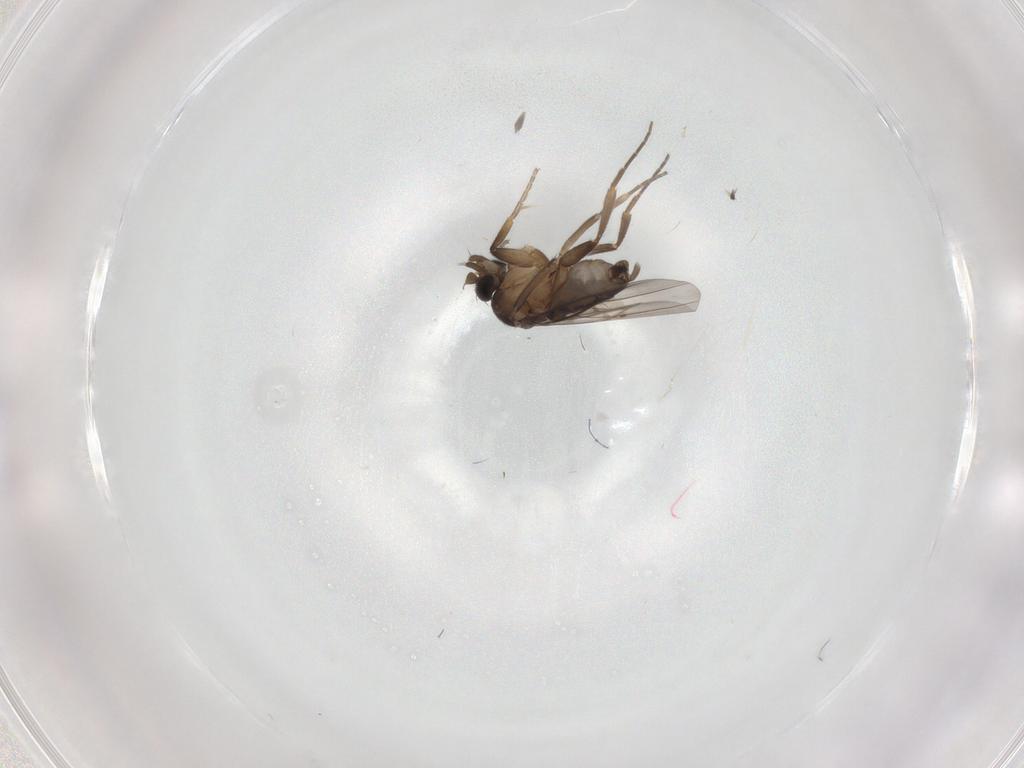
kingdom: Animalia
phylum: Arthropoda
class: Insecta
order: Diptera
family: Phoridae
